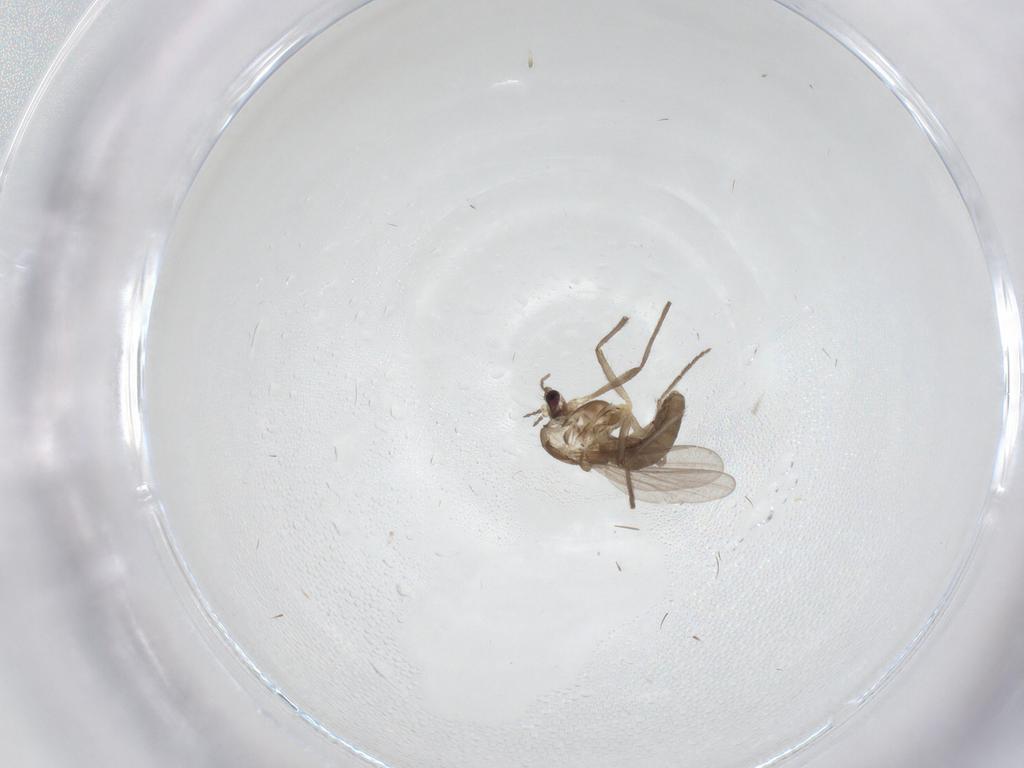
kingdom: Animalia
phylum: Arthropoda
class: Insecta
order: Diptera
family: Chironomidae
